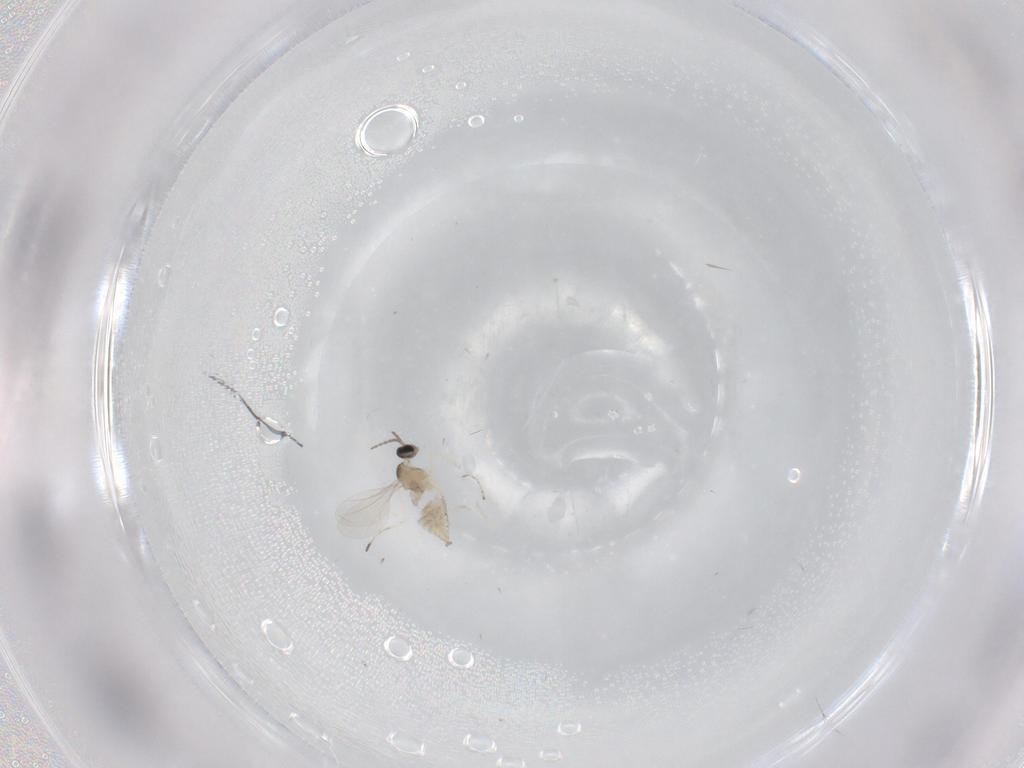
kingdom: Animalia
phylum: Arthropoda
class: Insecta
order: Diptera
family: Cecidomyiidae
